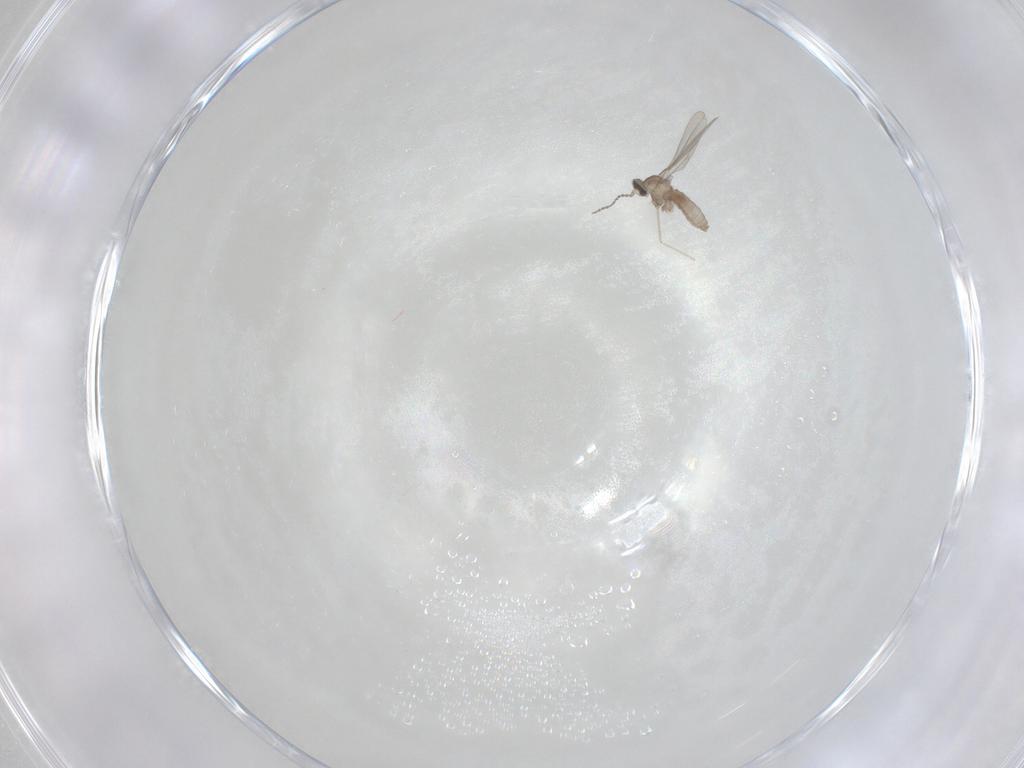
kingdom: Animalia
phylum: Arthropoda
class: Insecta
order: Diptera
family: Cecidomyiidae
